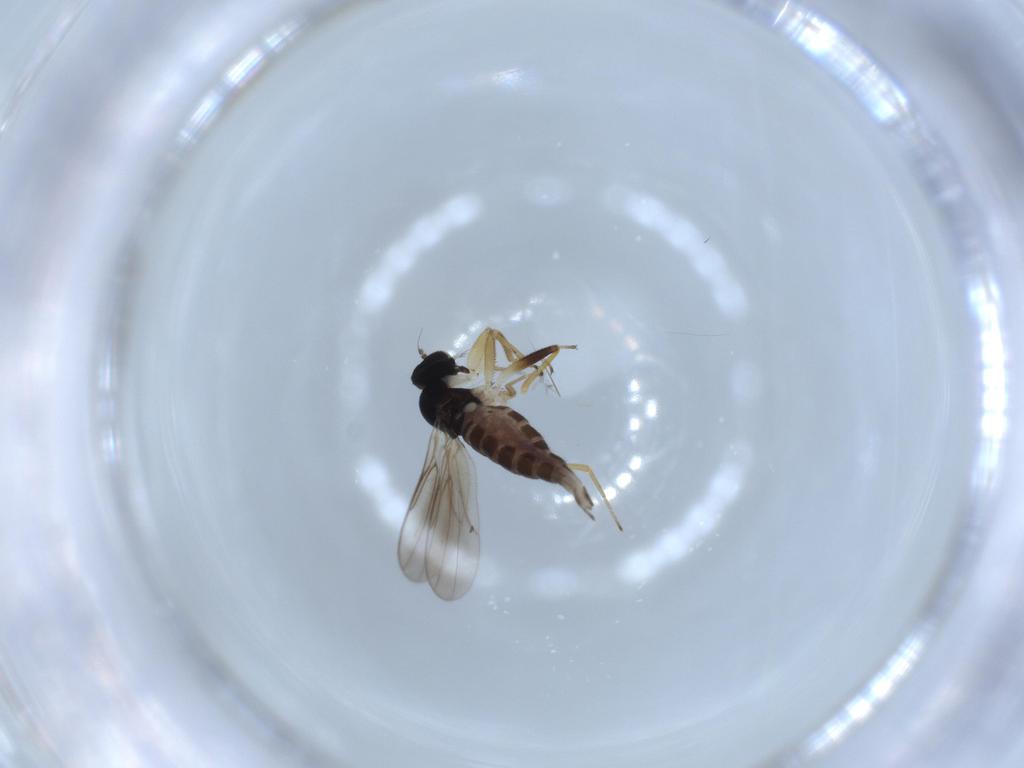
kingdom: Animalia
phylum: Arthropoda
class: Insecta
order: Diptera
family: Hybotidae
